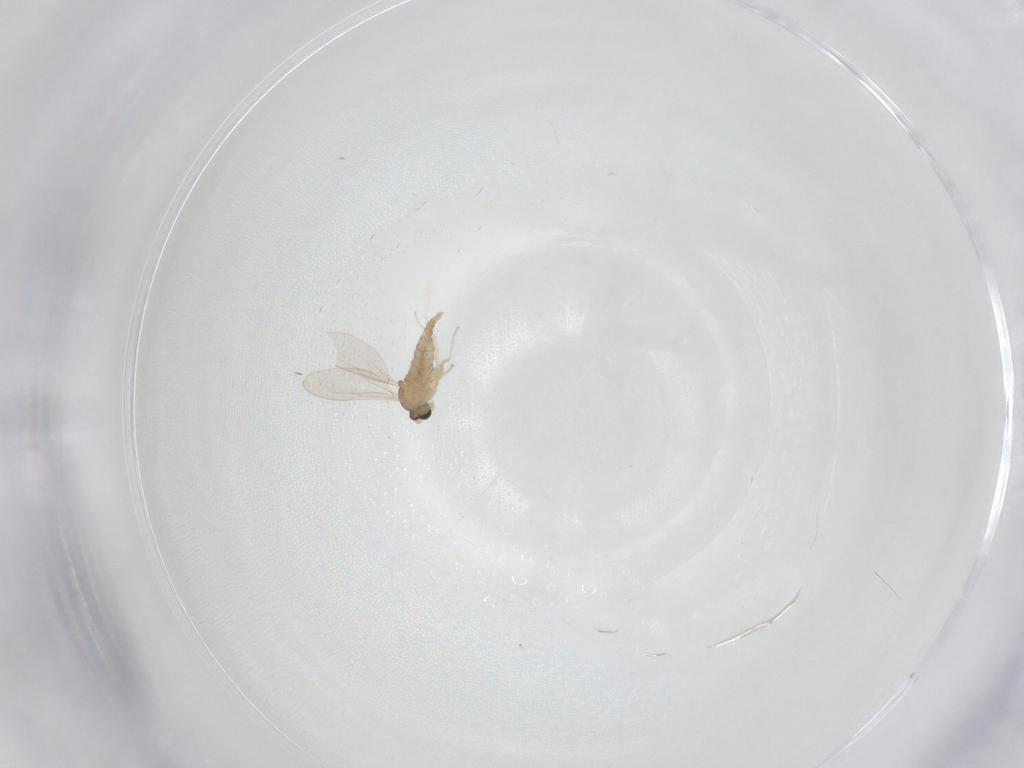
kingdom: Animalia
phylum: Arthropoda
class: Insecta
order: Diptera
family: Cecidomyiidae
